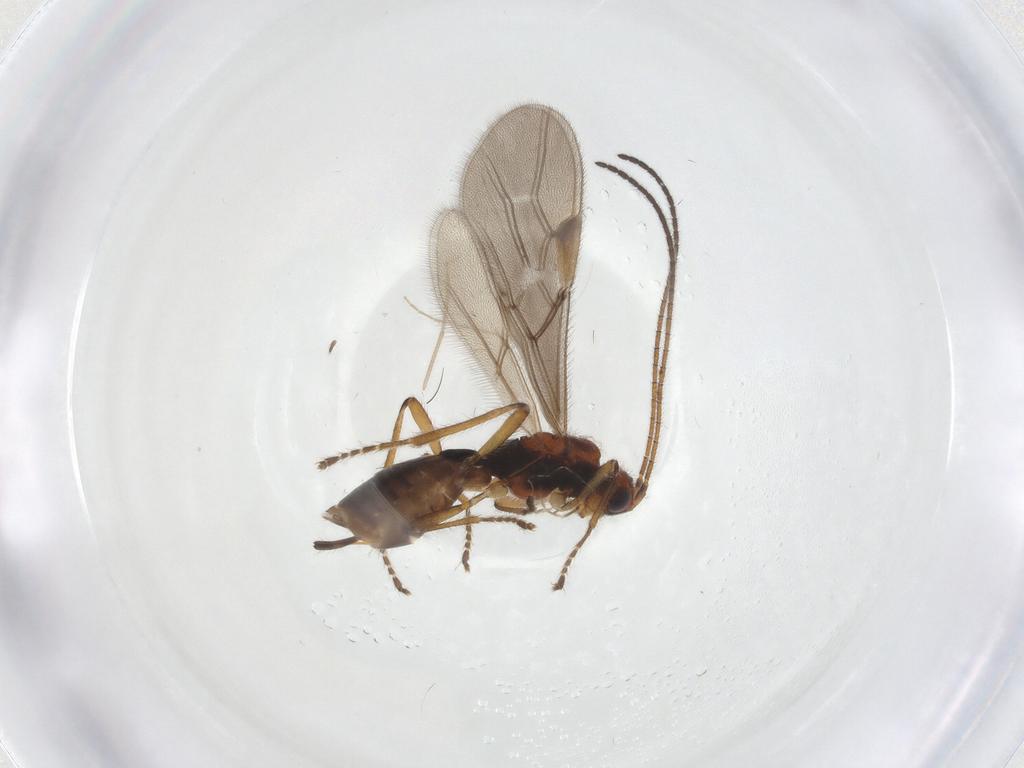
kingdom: Animalia
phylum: Arthropoda
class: Insecta
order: Hymenoptera
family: Braconidae
